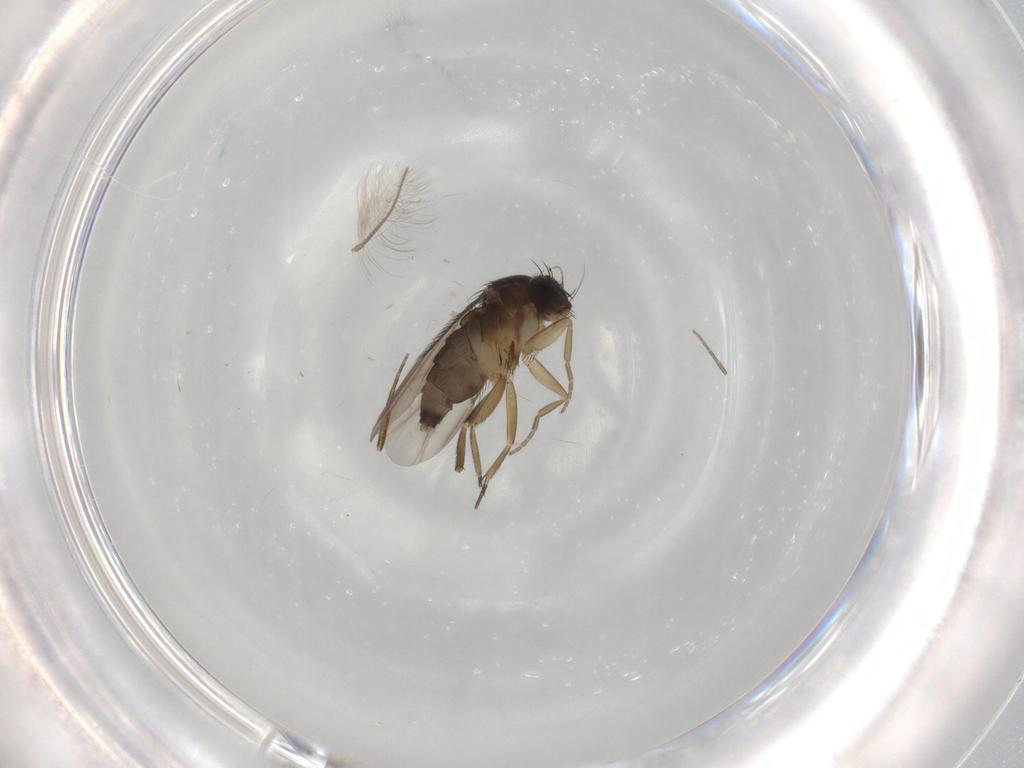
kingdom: Animalia
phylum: Arthropoda
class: Insecta
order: Diptera
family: Phoridae
